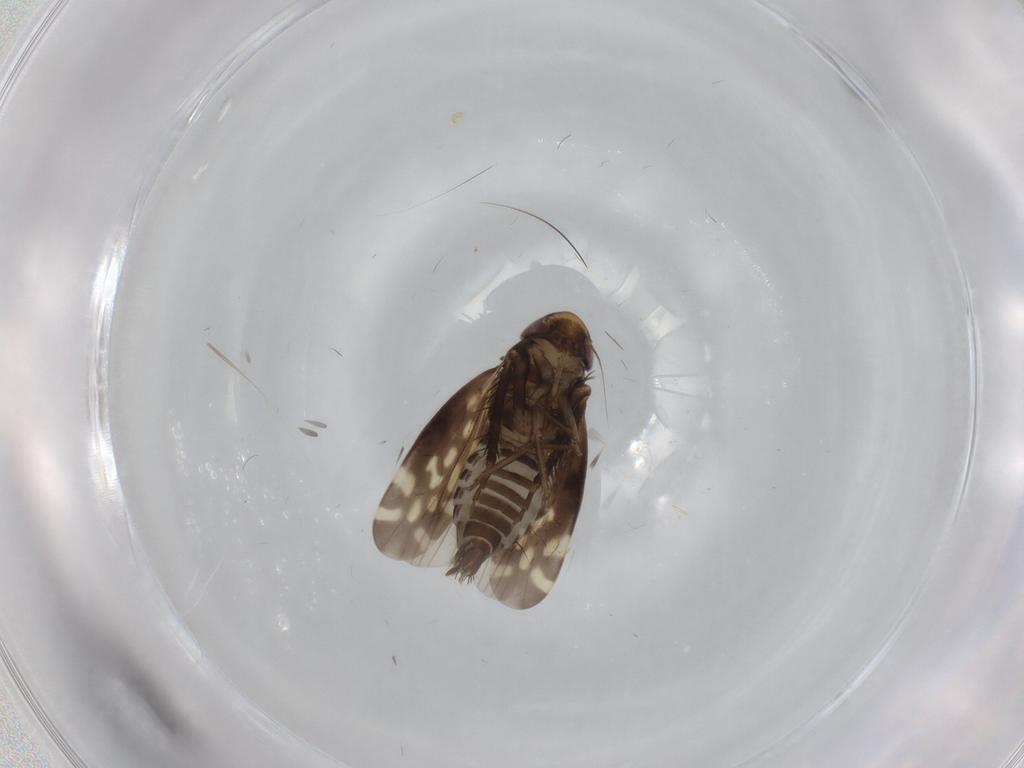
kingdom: Animalia
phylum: Arthropoda
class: Insecta
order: Hemiptera
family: Cicadellidae
